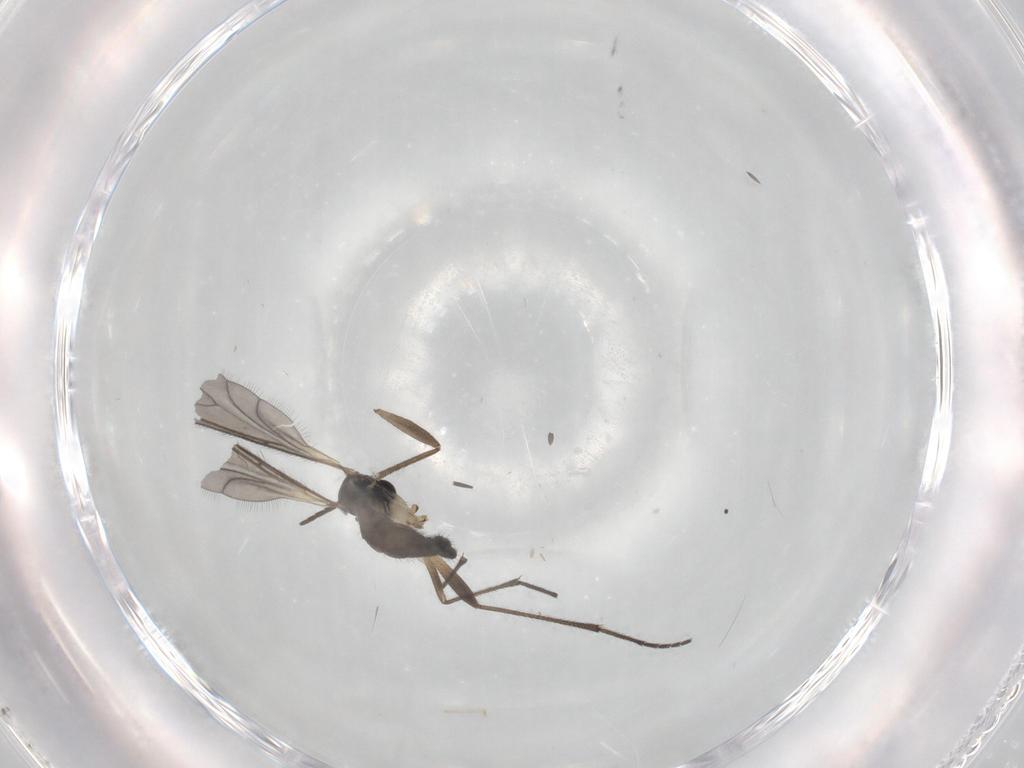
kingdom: Animalia
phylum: Arthropoda
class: Insecta
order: Diptera
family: Sciaridae
